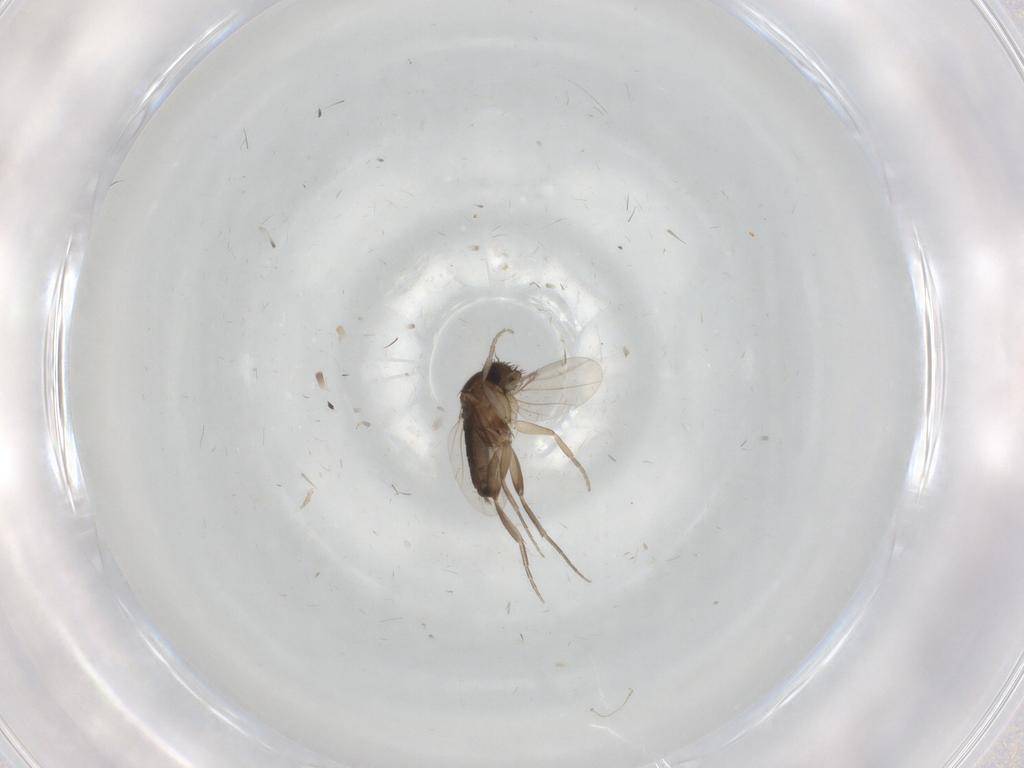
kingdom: Animalia
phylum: Arthropoda
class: Insecta
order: Diptera
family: Phoridae
